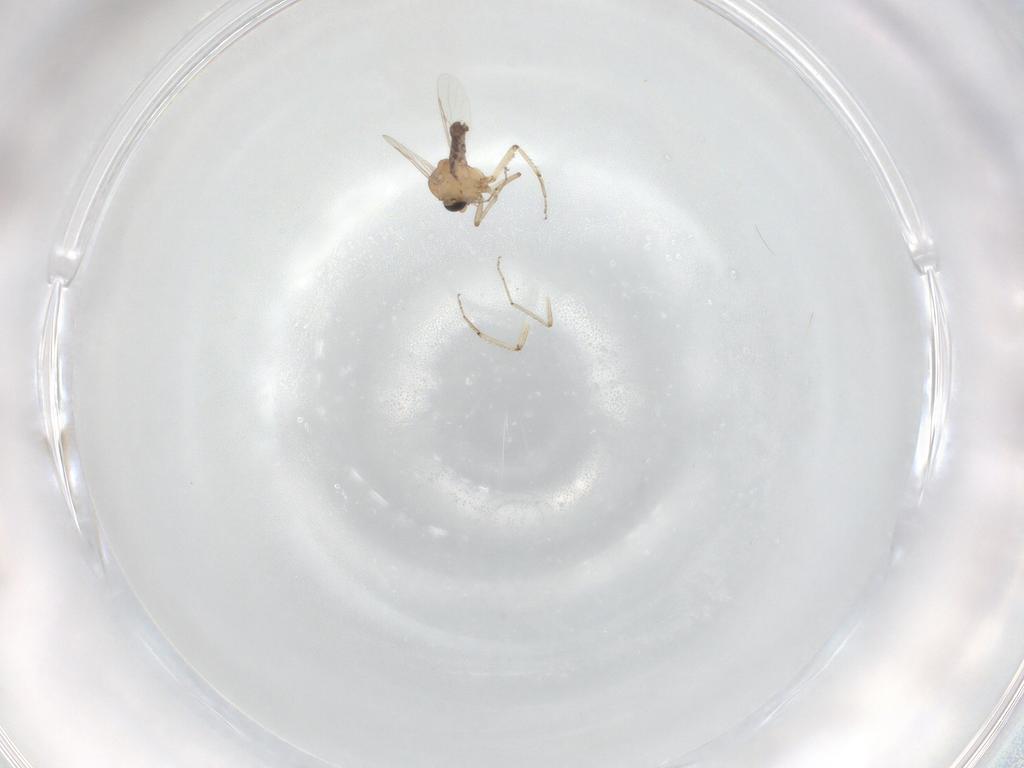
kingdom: Animalia
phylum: Arthropoda
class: Insecta
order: Diptera
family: Ceratopogonidae
